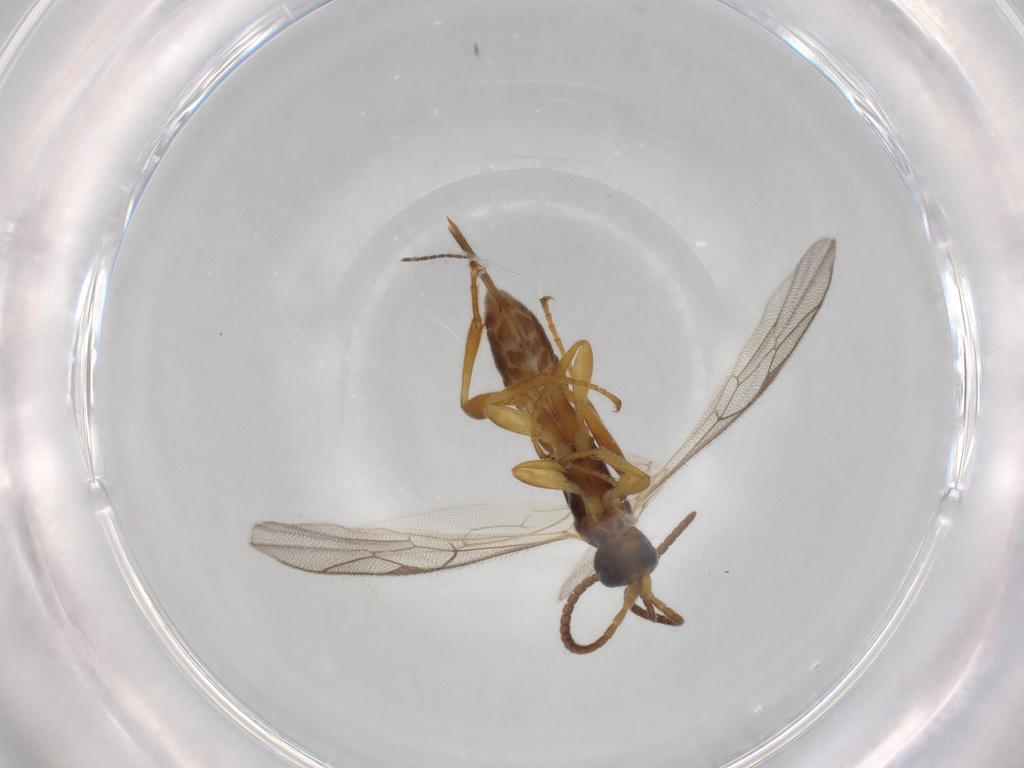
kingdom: Animalia
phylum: Arthropoda
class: Insecta
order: Hymenoptera
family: Ichneumonidae
